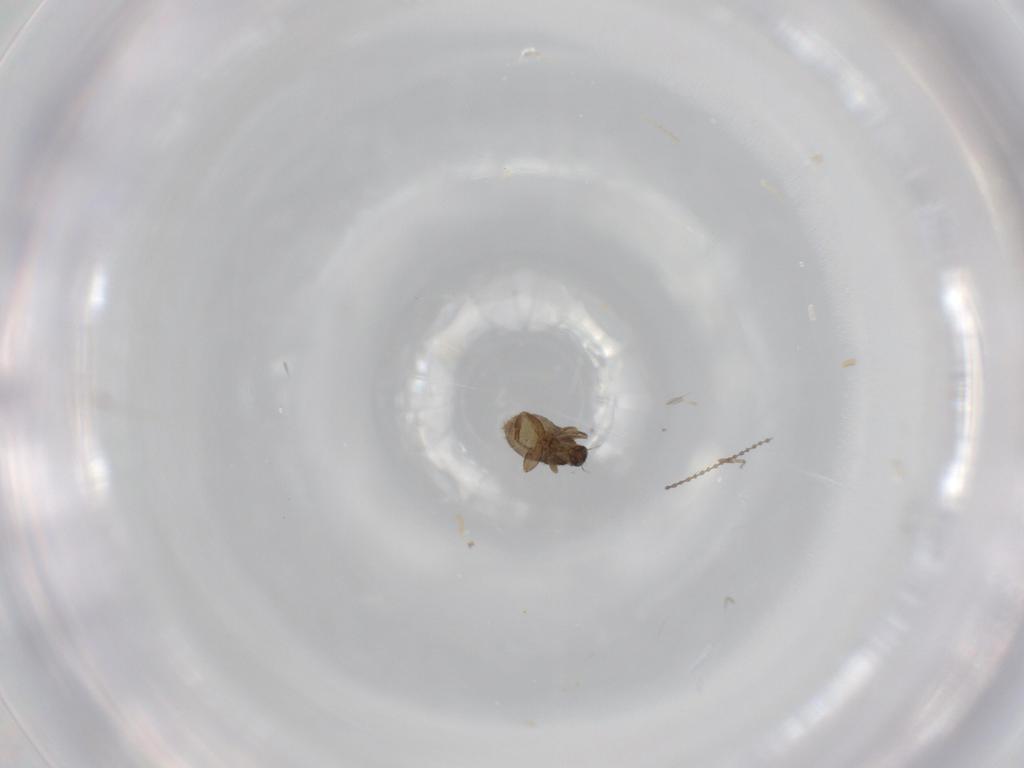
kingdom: Animalia
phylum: Arthropoda
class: Insecta
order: Diptera
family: Phoridae
